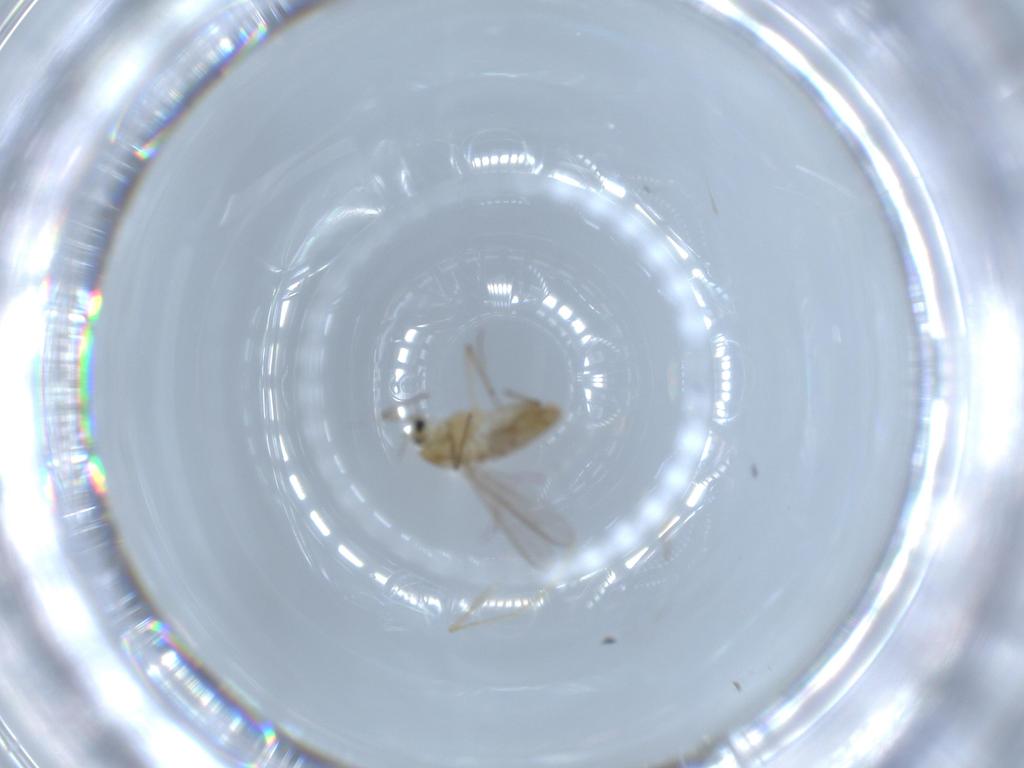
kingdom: Animalia
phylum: Arthropoda
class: Insecta
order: Diptera
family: Chironomidae
